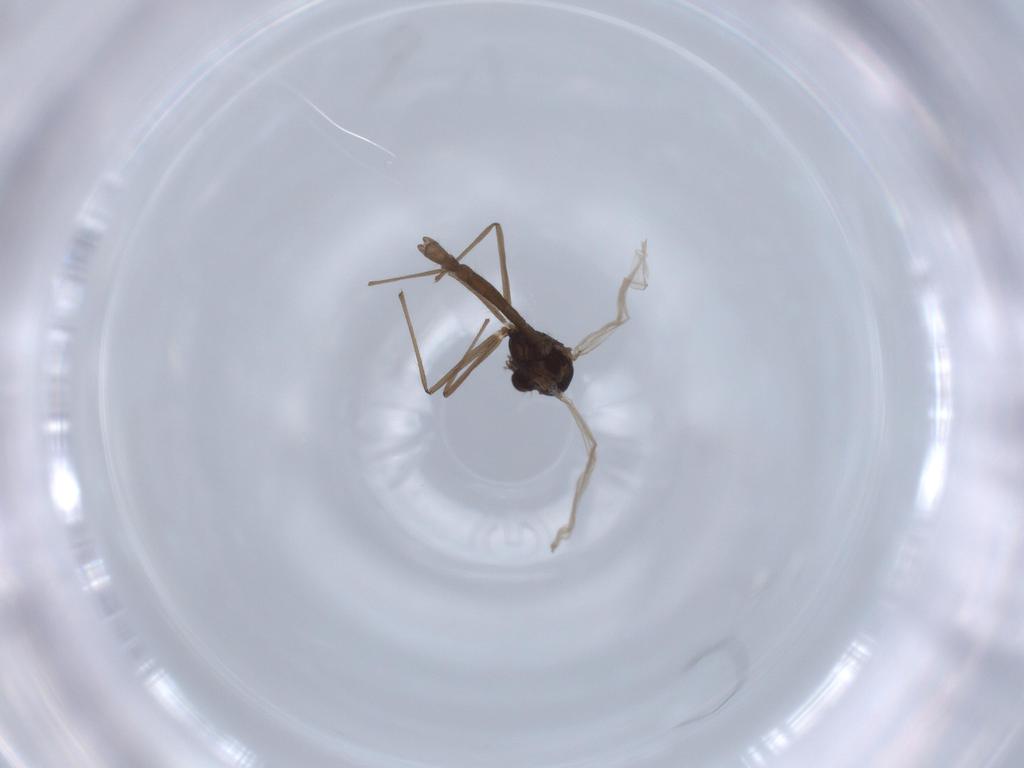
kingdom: Animalia
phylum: Arthropoda
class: Insecta
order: Diptera
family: Chironomidae
